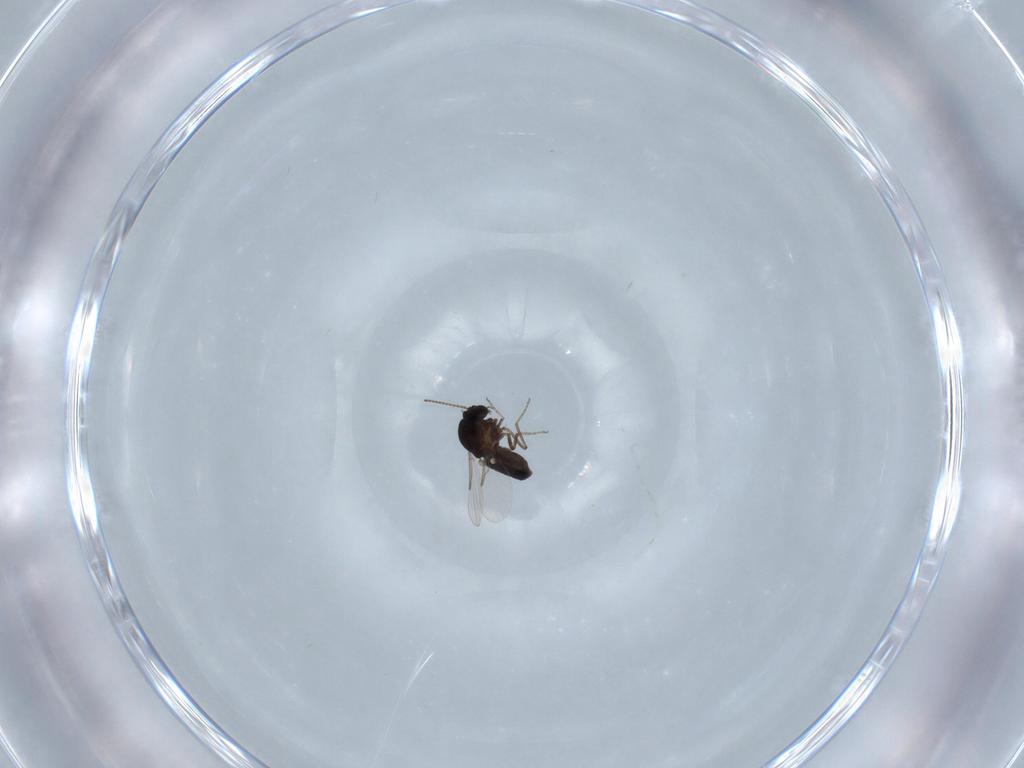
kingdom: Animalia
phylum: Arthropoda
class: Insecta
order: Diptera
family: Ceratopogonidae
